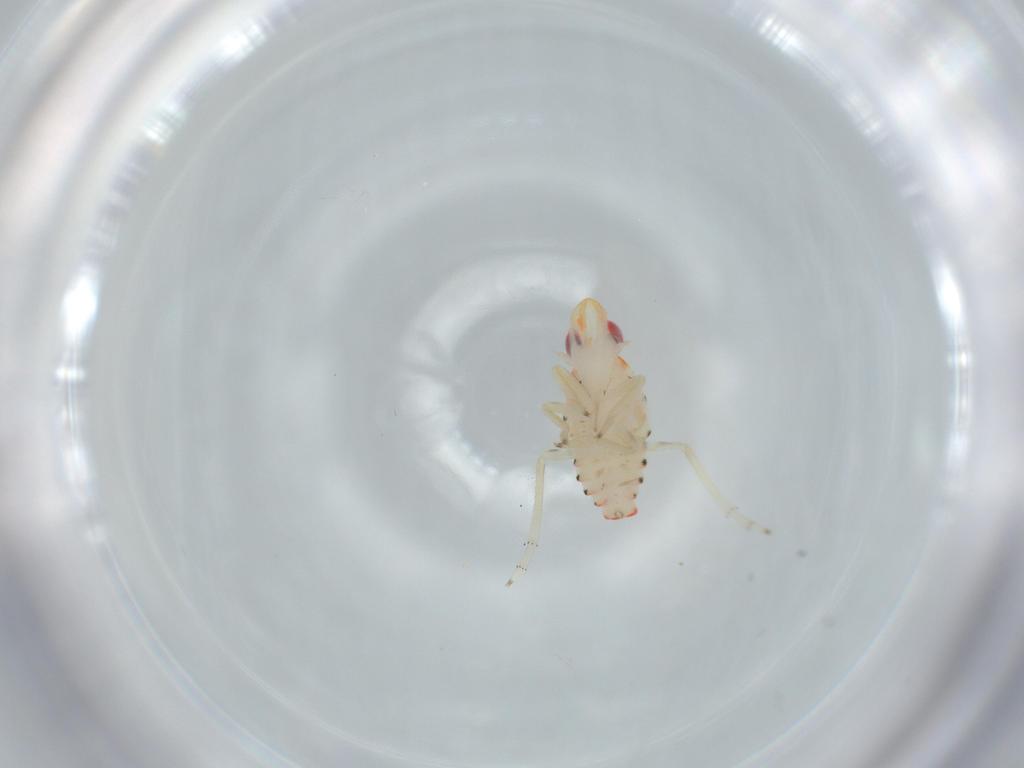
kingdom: Animalia
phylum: Arthropoda
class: Insecta
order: Hemiptera
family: Tropiduchidae
